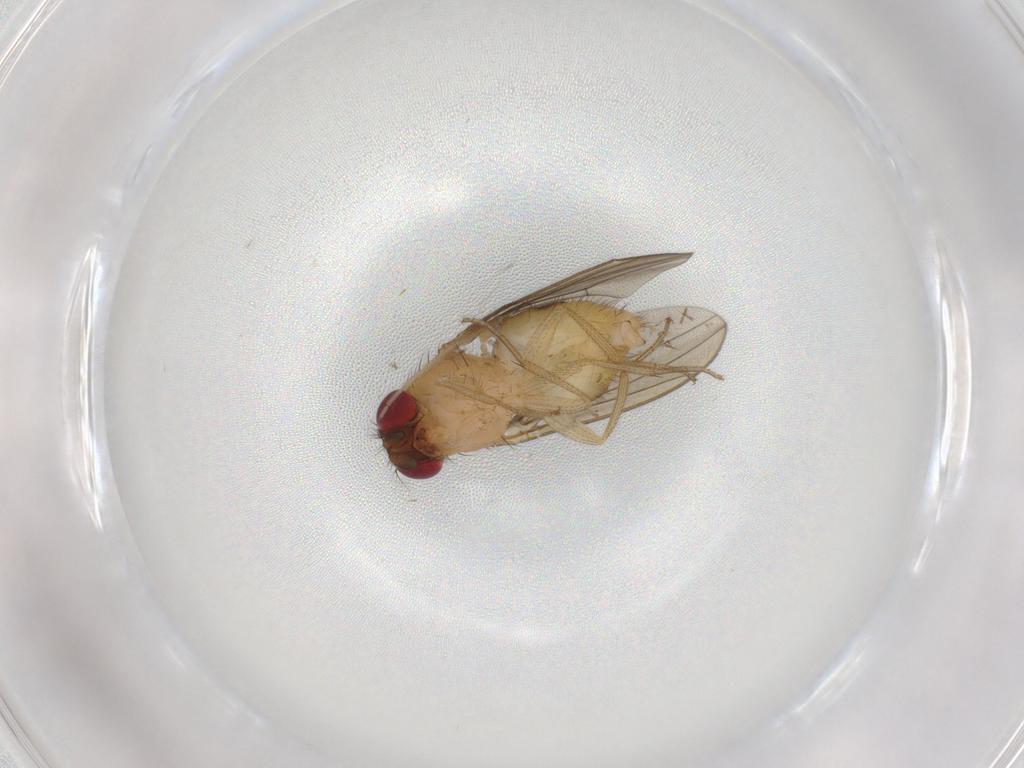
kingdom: Animalia
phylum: Arthropoda
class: Insecta
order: Diptera
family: Drosophilidae
